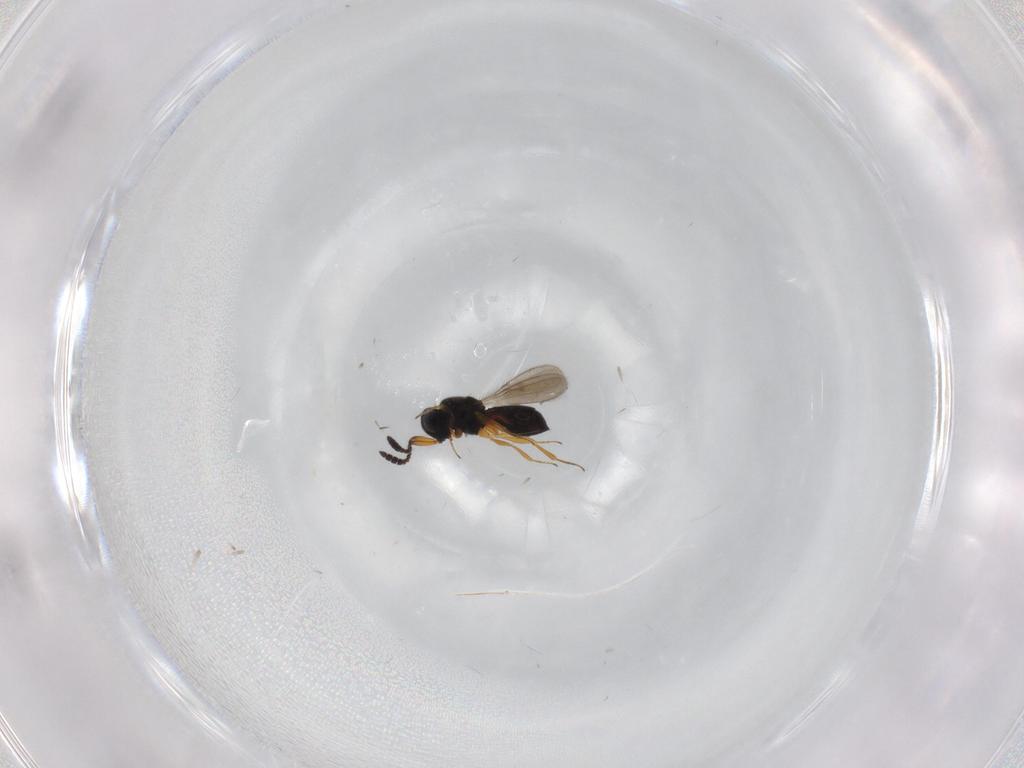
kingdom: Animalia
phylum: Arthropoda
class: Insecta
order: Hymenoptera
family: Scelionidae
